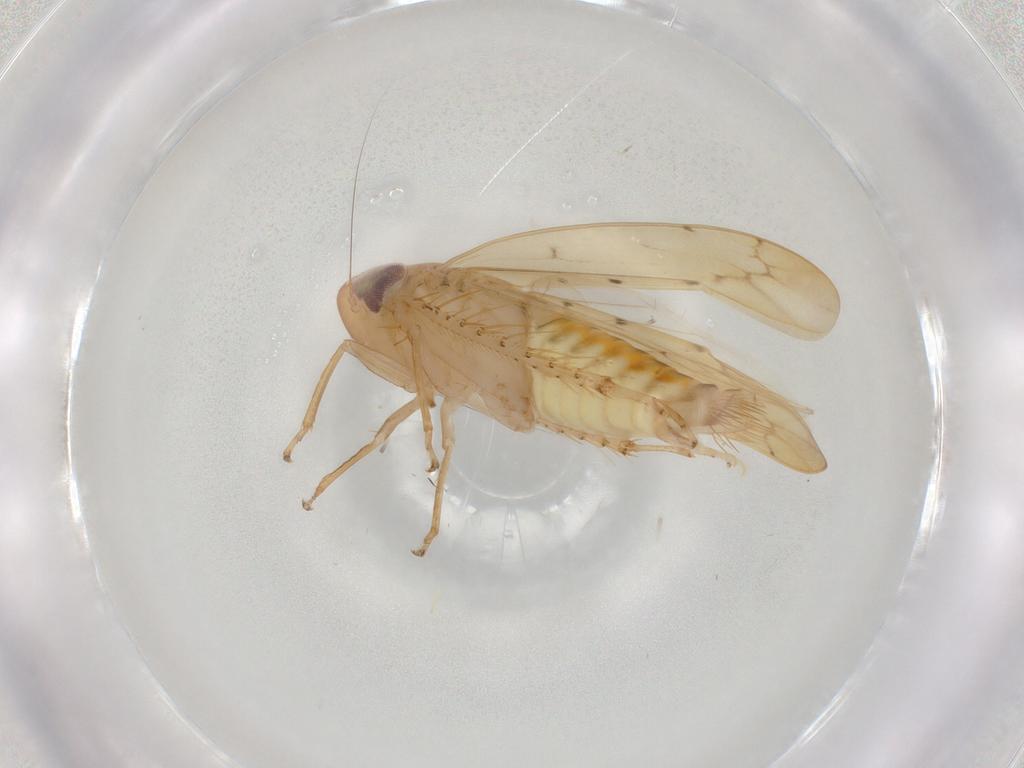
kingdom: Animalia
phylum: Arthropoda
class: Insecta
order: Hemiptera
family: Cicadellidae
